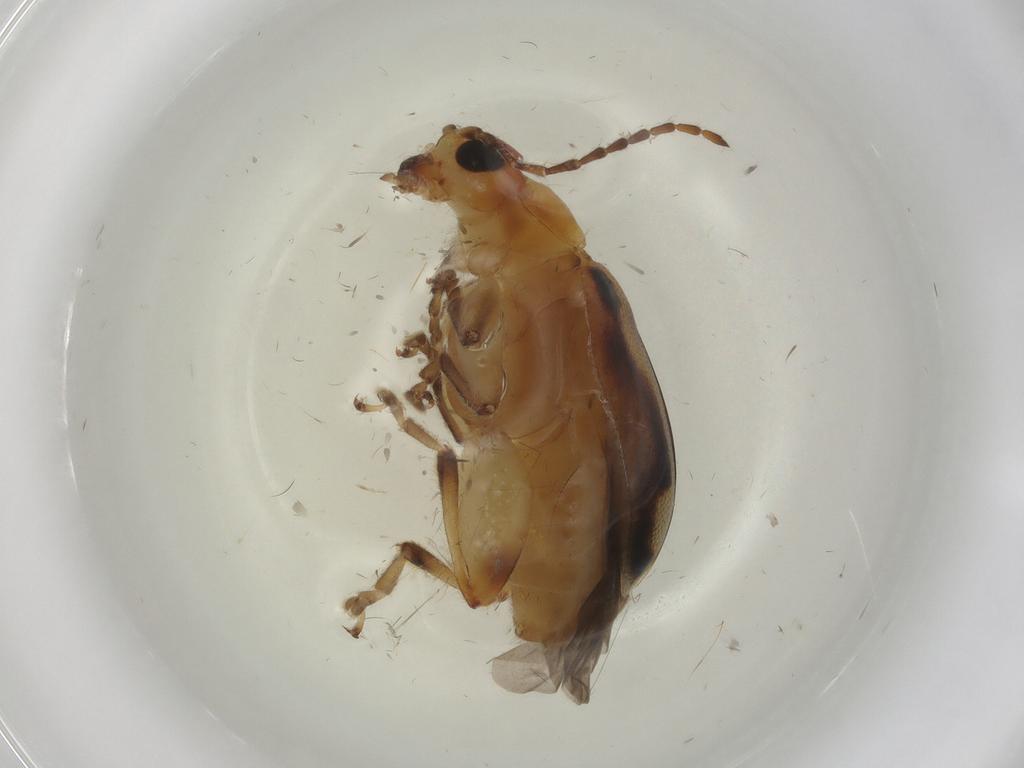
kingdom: Animalia
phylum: Arthropoda
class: Insecta
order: Coleoptera
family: Chrysomelidae
